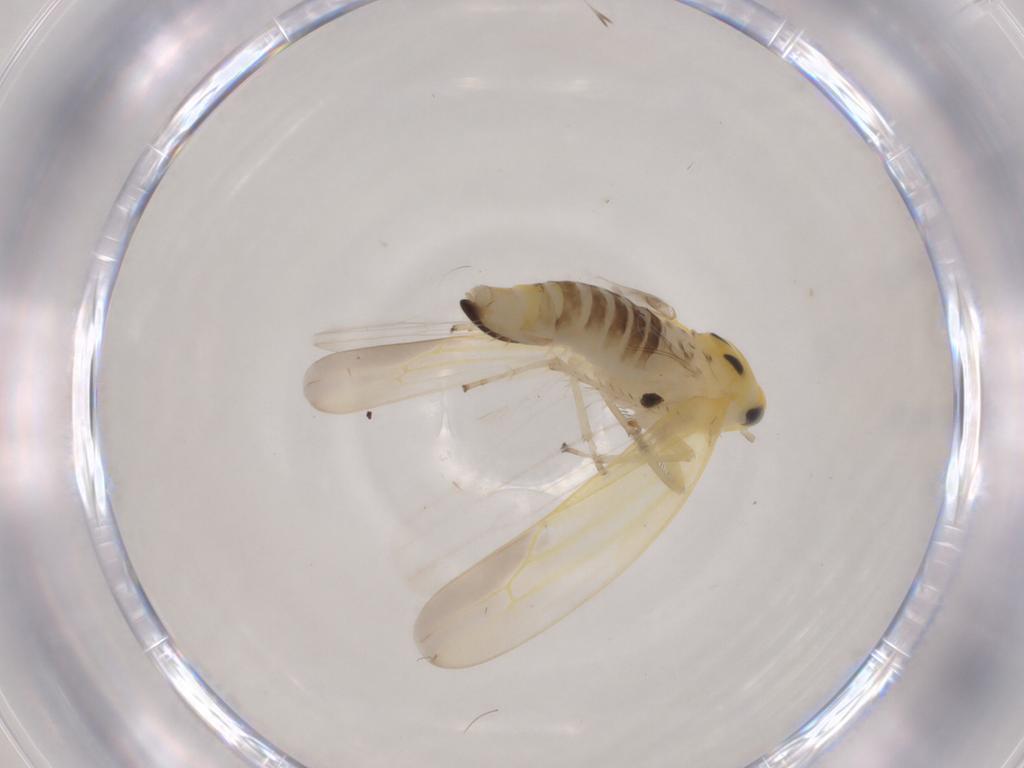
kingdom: Animalia
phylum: Arthropoda
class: Insecta
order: Hemiptera
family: Cicadellidae
